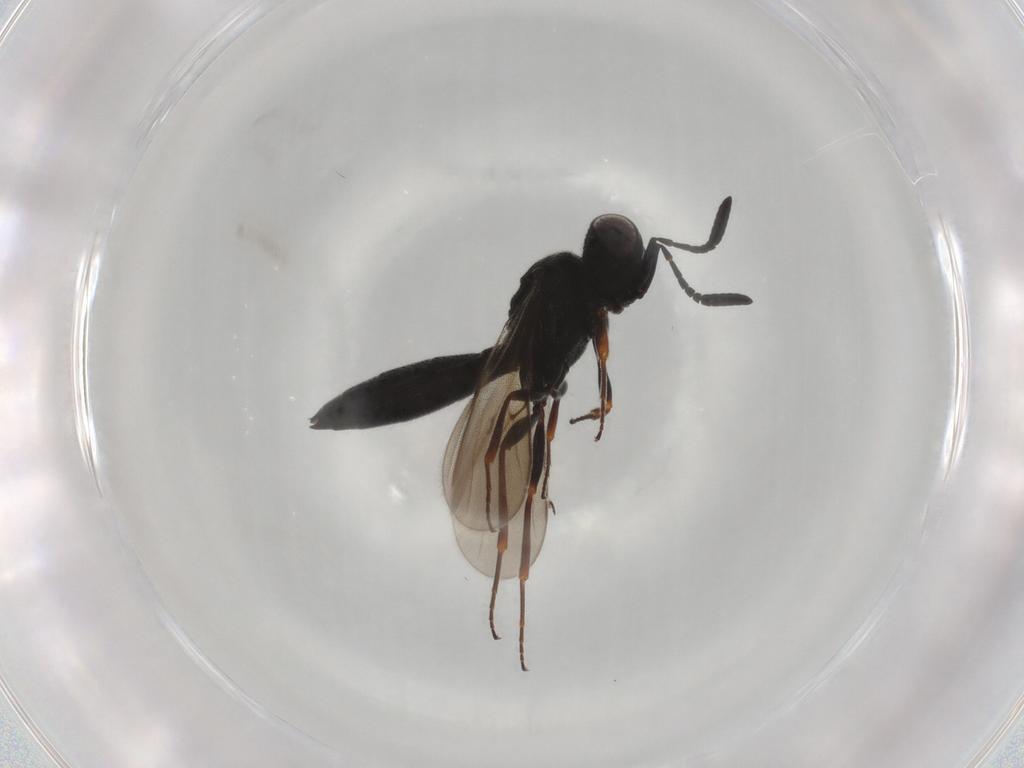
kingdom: Animalia
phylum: Arthropoda
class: Insecta
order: Hymenoptera
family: Scelionidae
